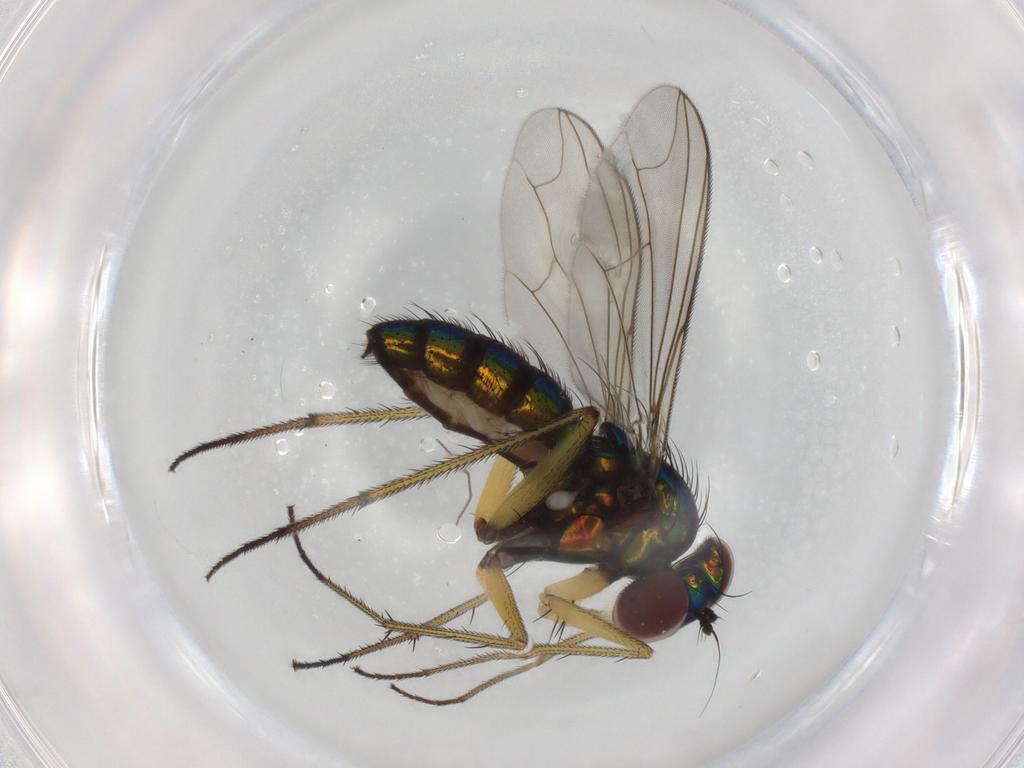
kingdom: Animalia
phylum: Arthropoda
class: Insecta
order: Diptera
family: Dolichopodidae
